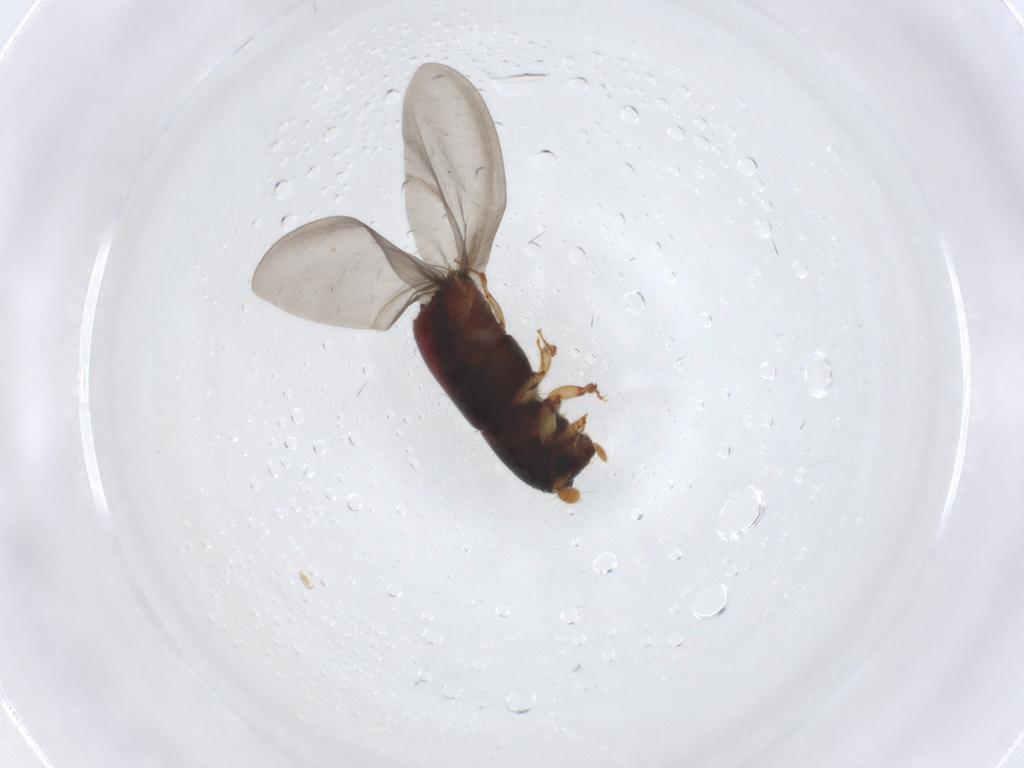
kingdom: Animalia
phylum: Arthropoda
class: Insecta
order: Coleoptera
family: Curculionidae
